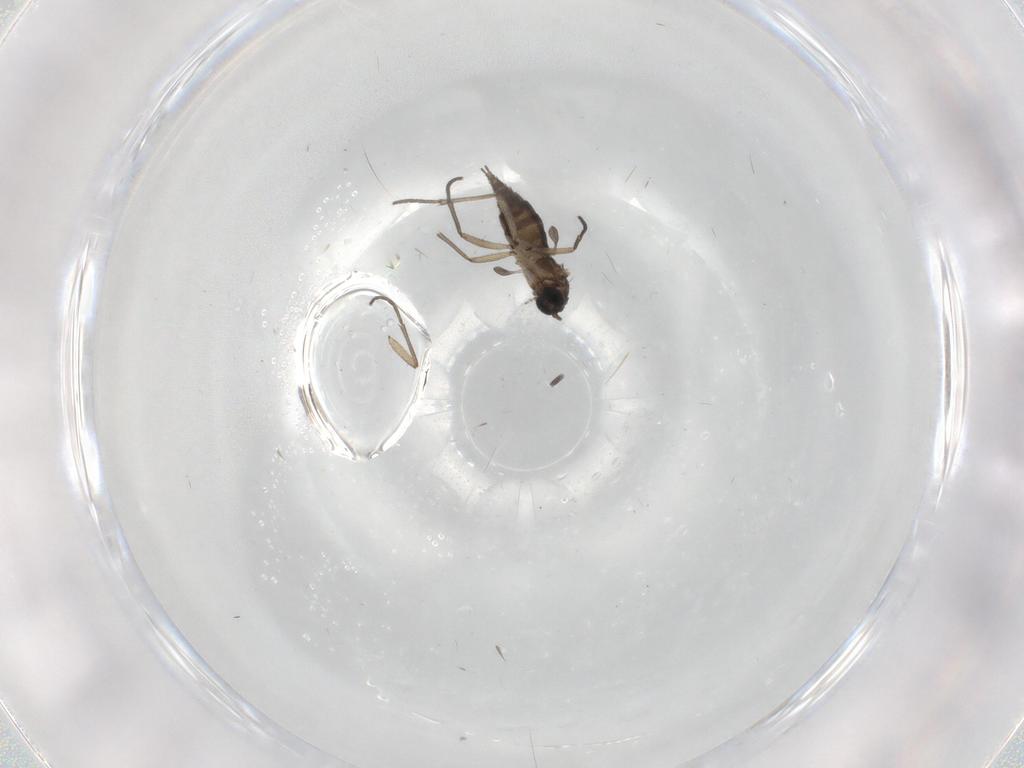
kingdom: Animalia
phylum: Arthropoda
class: Insecta
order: Diptera
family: Sciaridae
